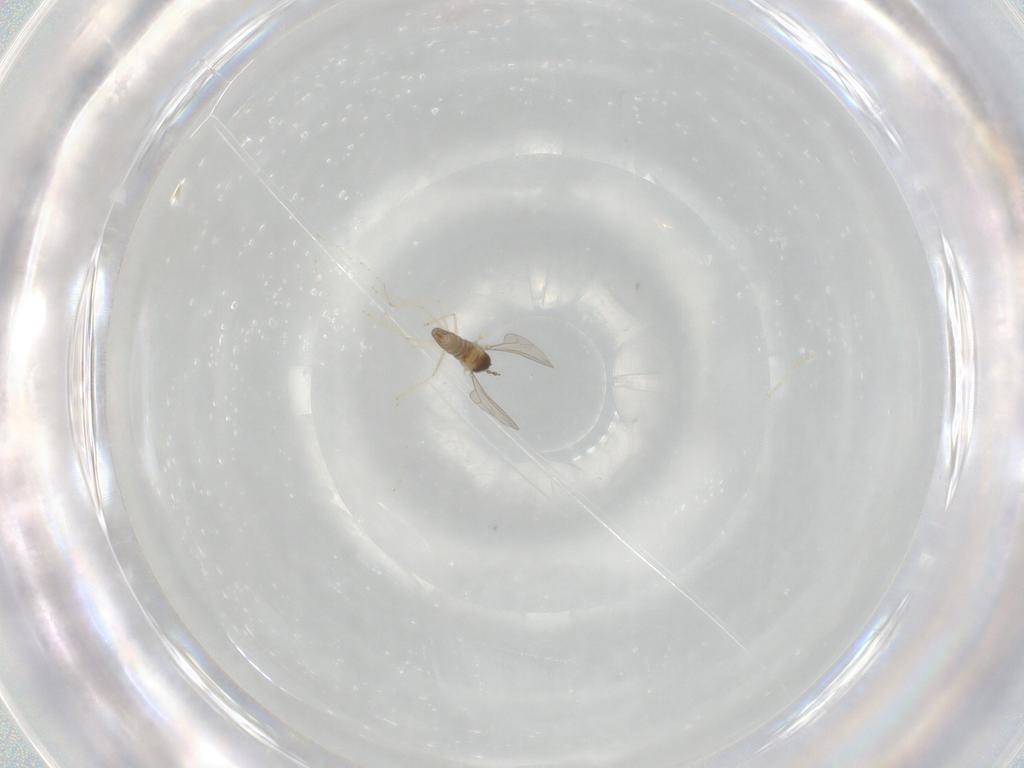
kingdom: Animalia
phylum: Arthropoda
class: Insecta
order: Diptera
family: Cecidomyiidae
